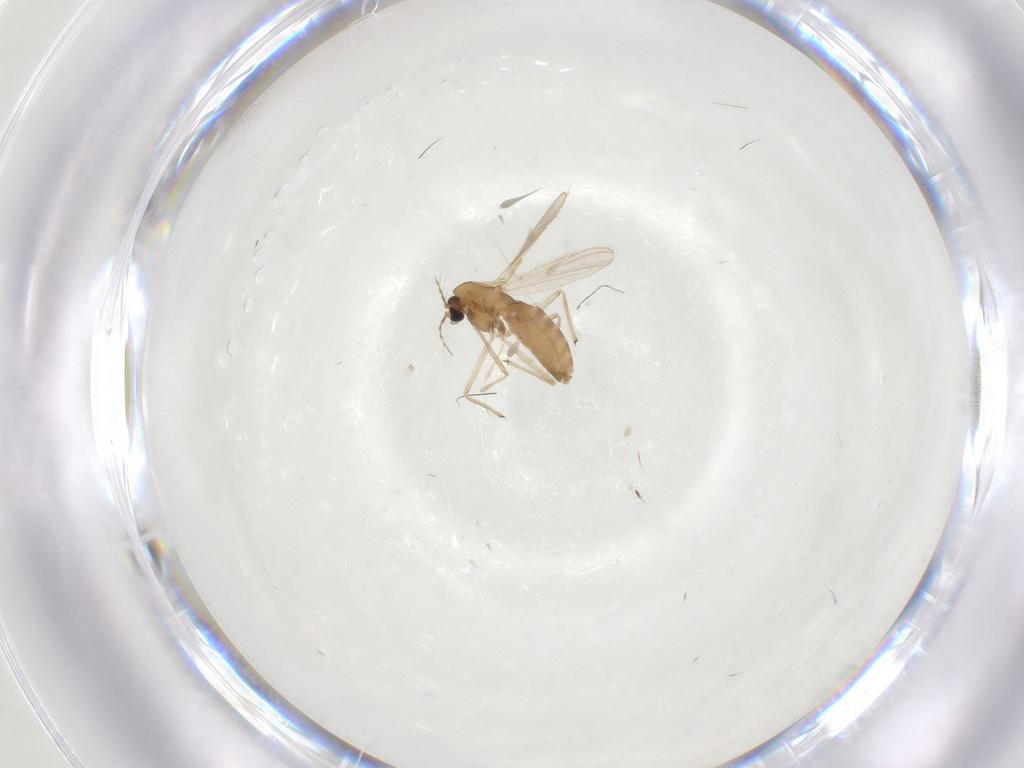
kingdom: Animalia
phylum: Arthropoda
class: Insecta
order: Diptera
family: Chironomidae
